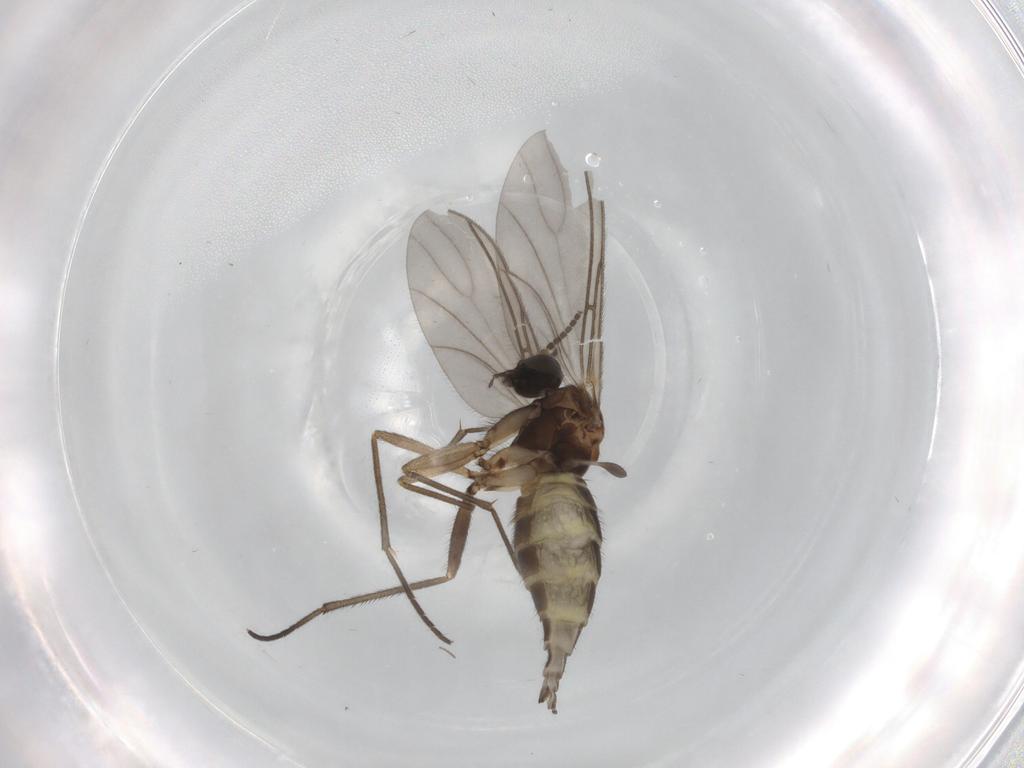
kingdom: Animalia
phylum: Arthropoda
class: Insecta
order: Diptera
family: Sciaridae
